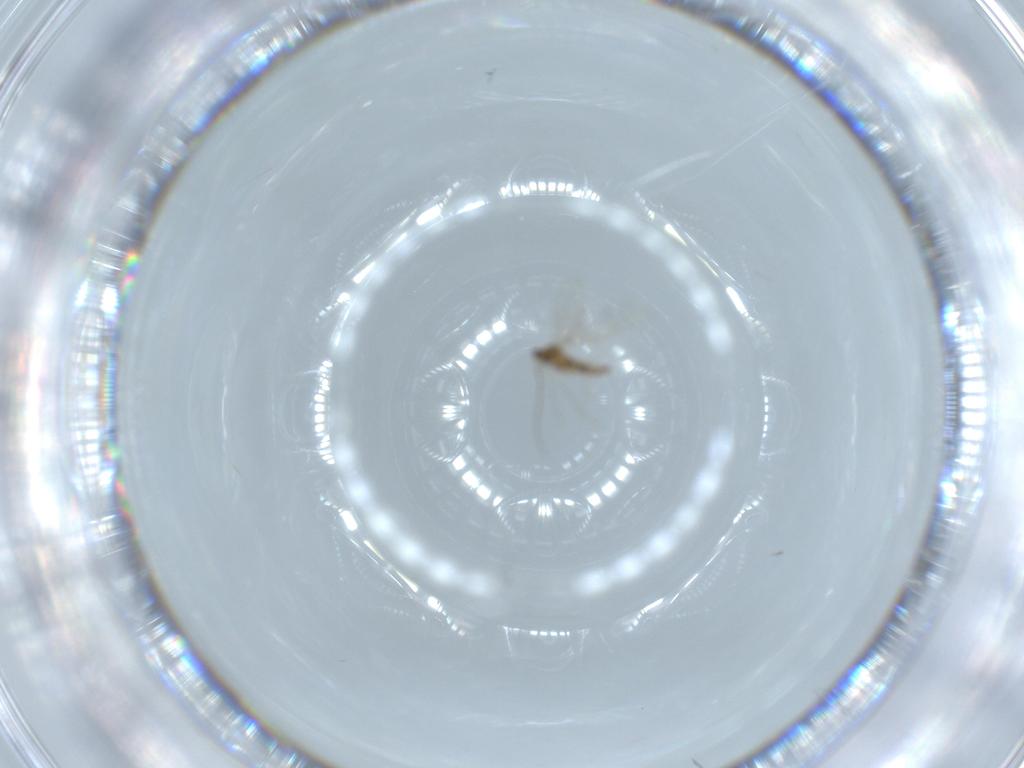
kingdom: Animalia
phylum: Arthropoda
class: Insecta
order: Diptera
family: Cecidomyiidae
